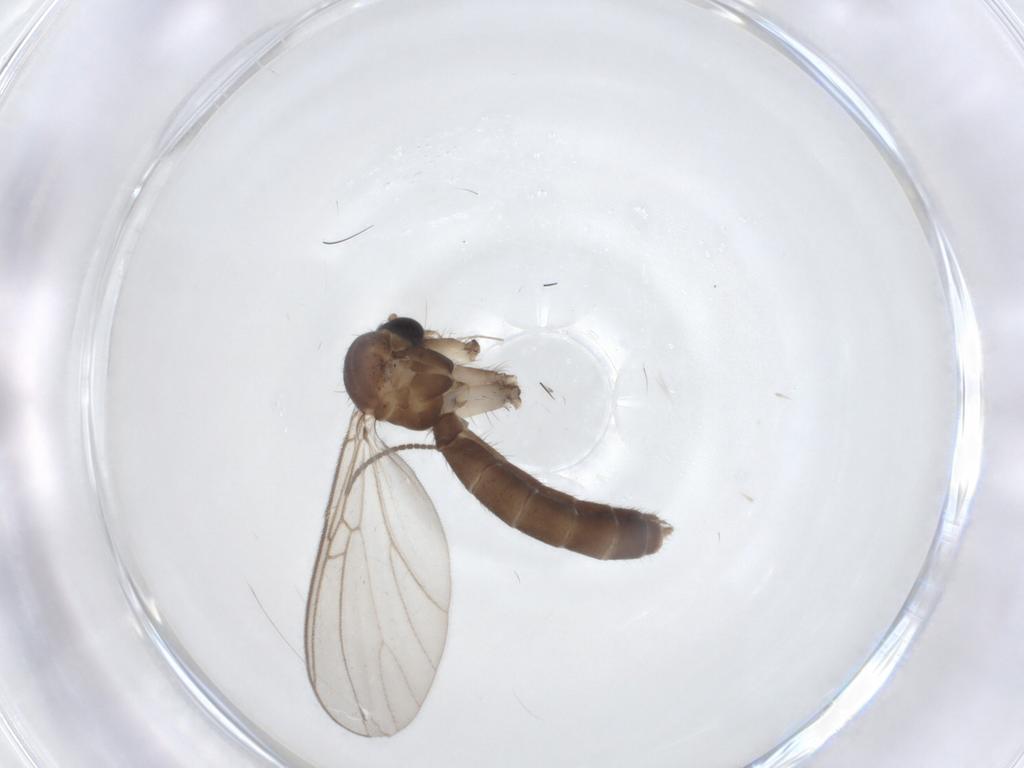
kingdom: Animalia
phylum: Arthropoda
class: Insecta
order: Diptera
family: Mycetophilidae
